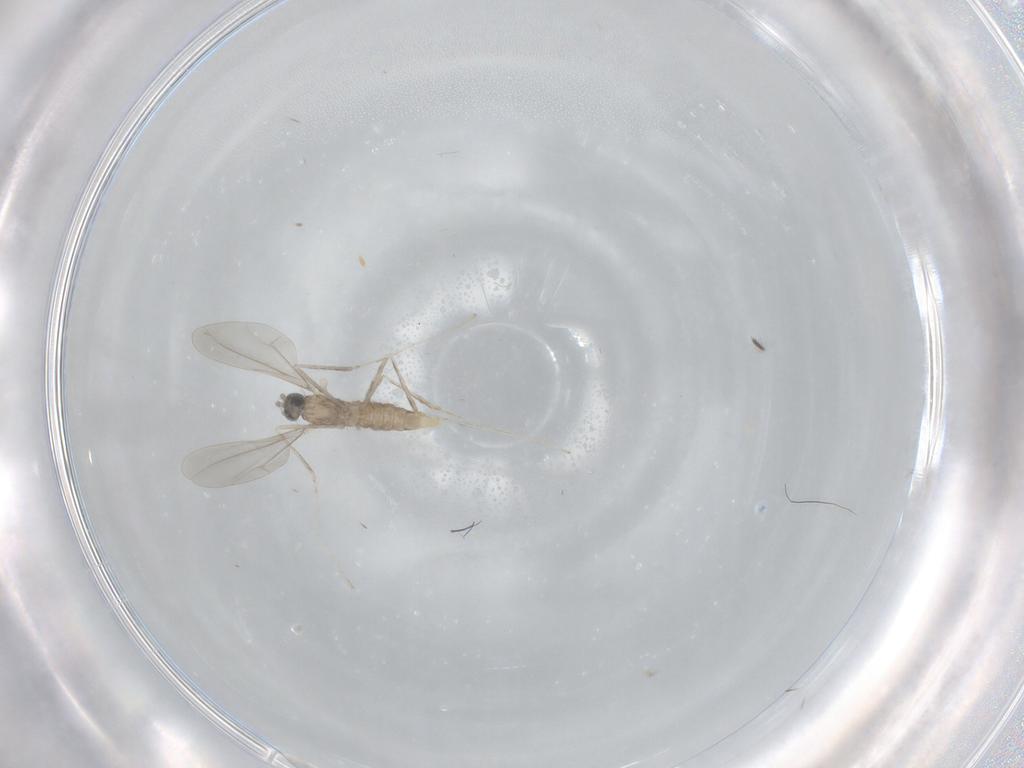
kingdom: Animalia
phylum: Arthropoda
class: Insecta
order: Diptera
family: Cecidomyiidae
